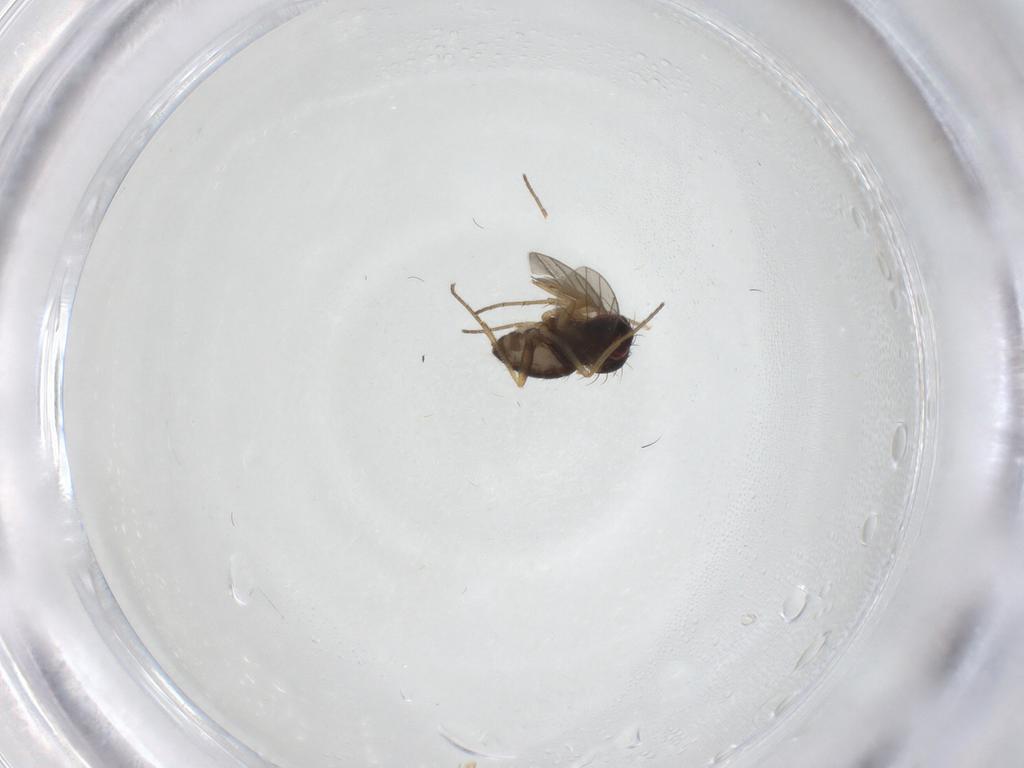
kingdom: Animalia
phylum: Arthropoda
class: Insecta
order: Diptera
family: Dolichopodidae
